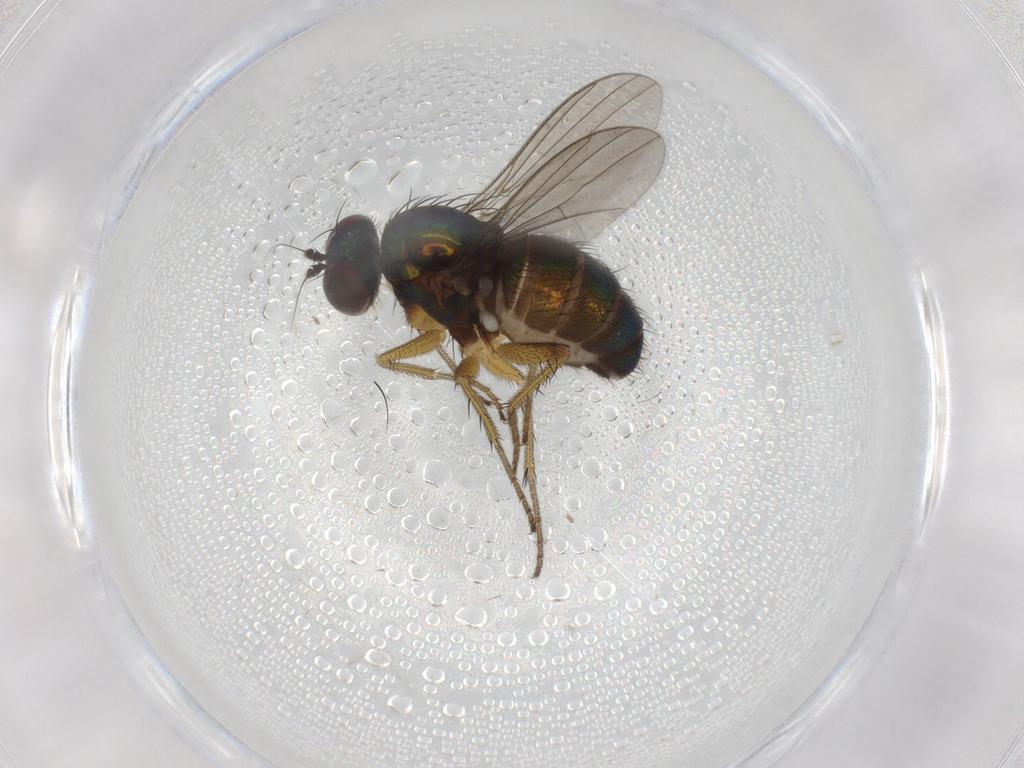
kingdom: Animalia
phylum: Arthropoda
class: Insecta
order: Diptera
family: Dolichopodidae
